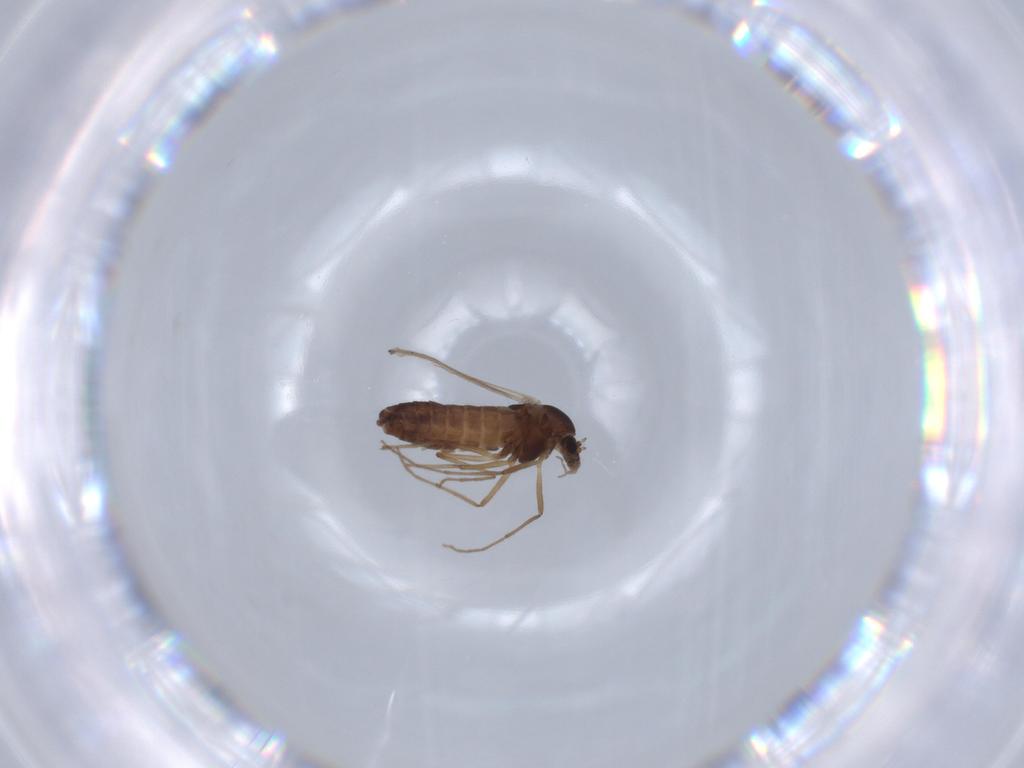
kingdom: Animalia
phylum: Arthropoda
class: Insecta
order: Diptera
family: Chironomidae
